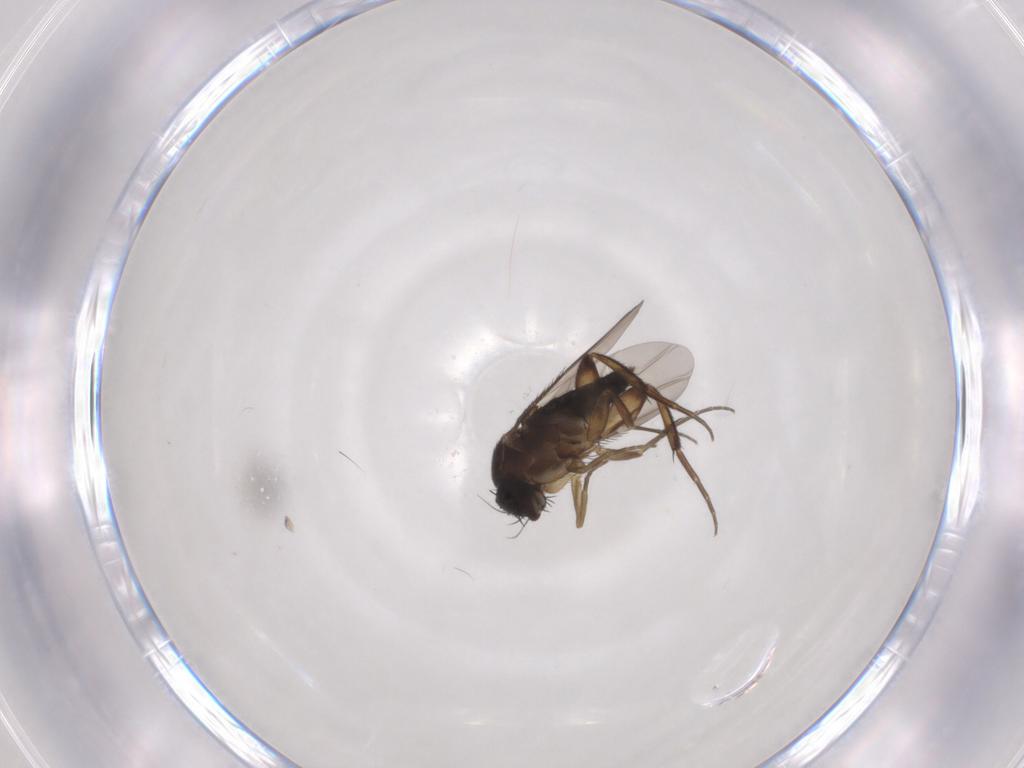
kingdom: Animalia
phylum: Arthropoda
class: Insecta
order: Diptera
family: Phoridae
